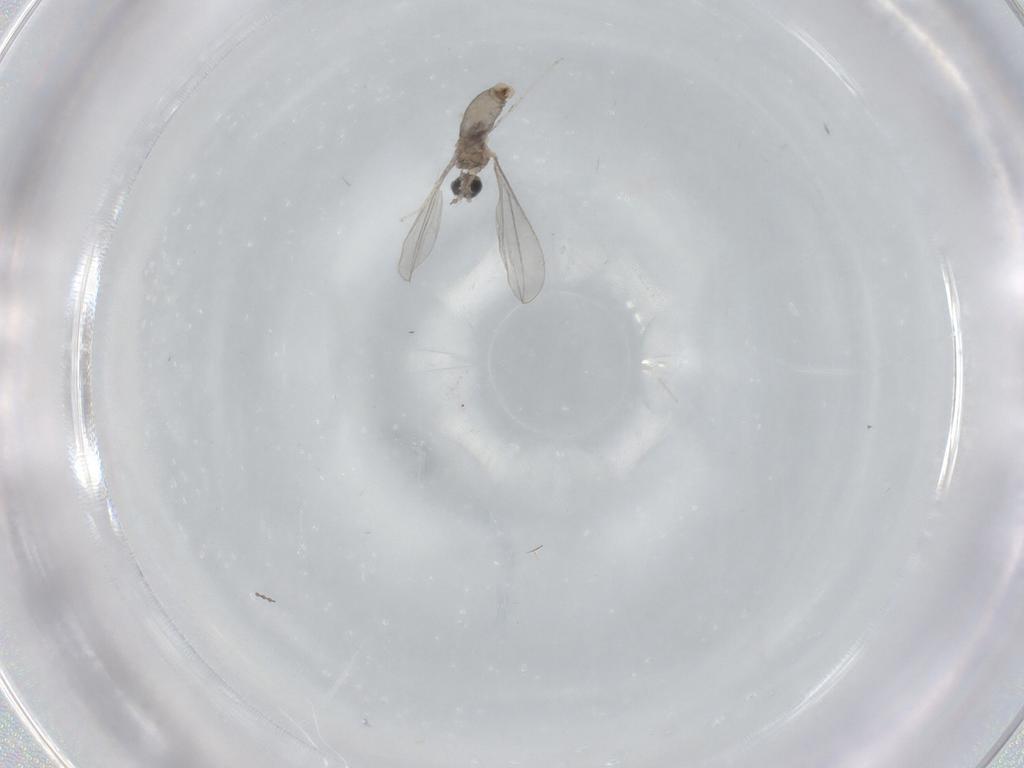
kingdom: Animalia
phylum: Arthropoda
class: Insecta
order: Diptera
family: Cecidomyiidae
